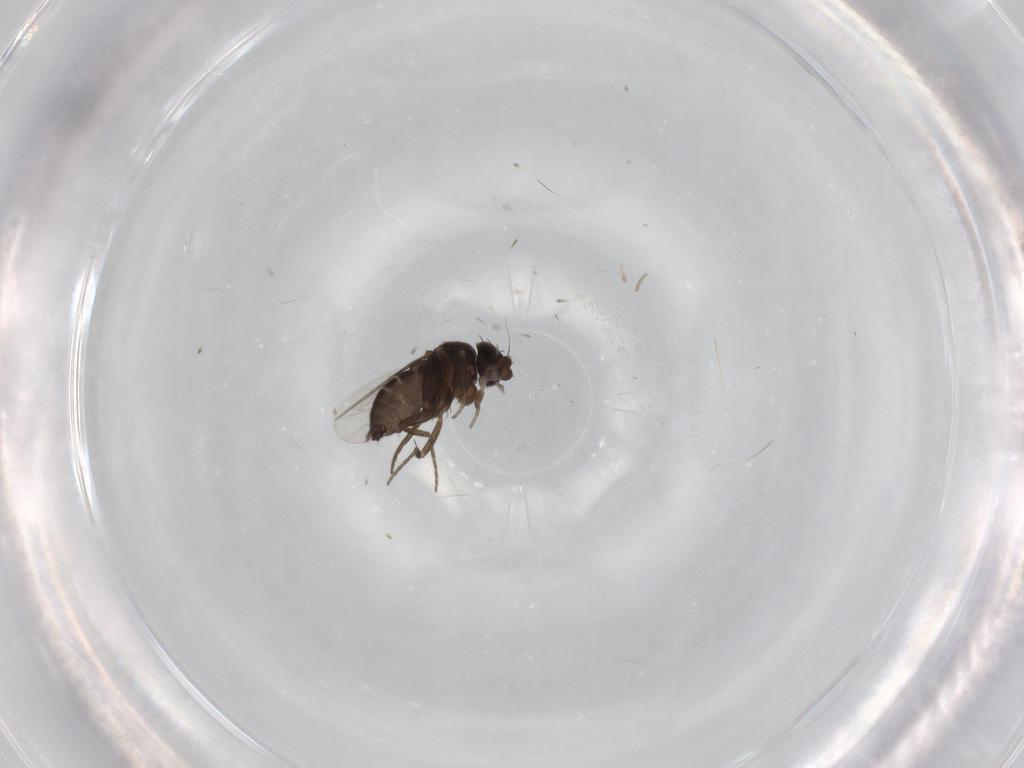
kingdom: Animalia
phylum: Arthropoda
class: Insecta
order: Diptera
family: Phoridae
